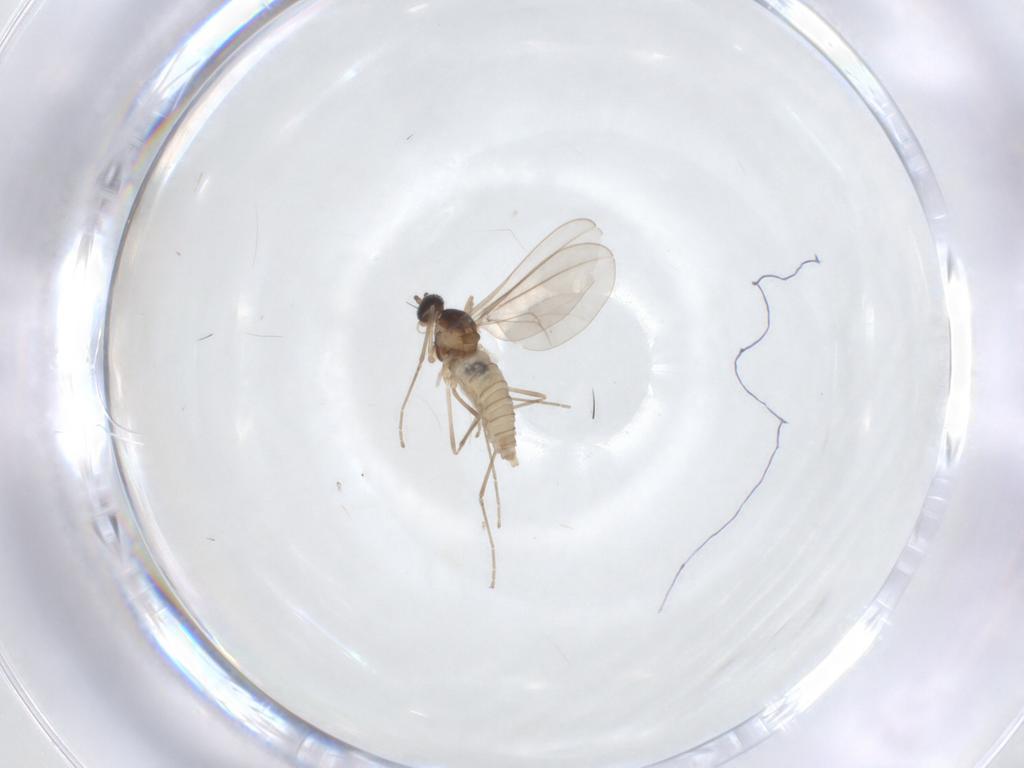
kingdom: Animalia
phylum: Arthropoda
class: Insecta
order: Diptera
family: Cecidomyiidae
